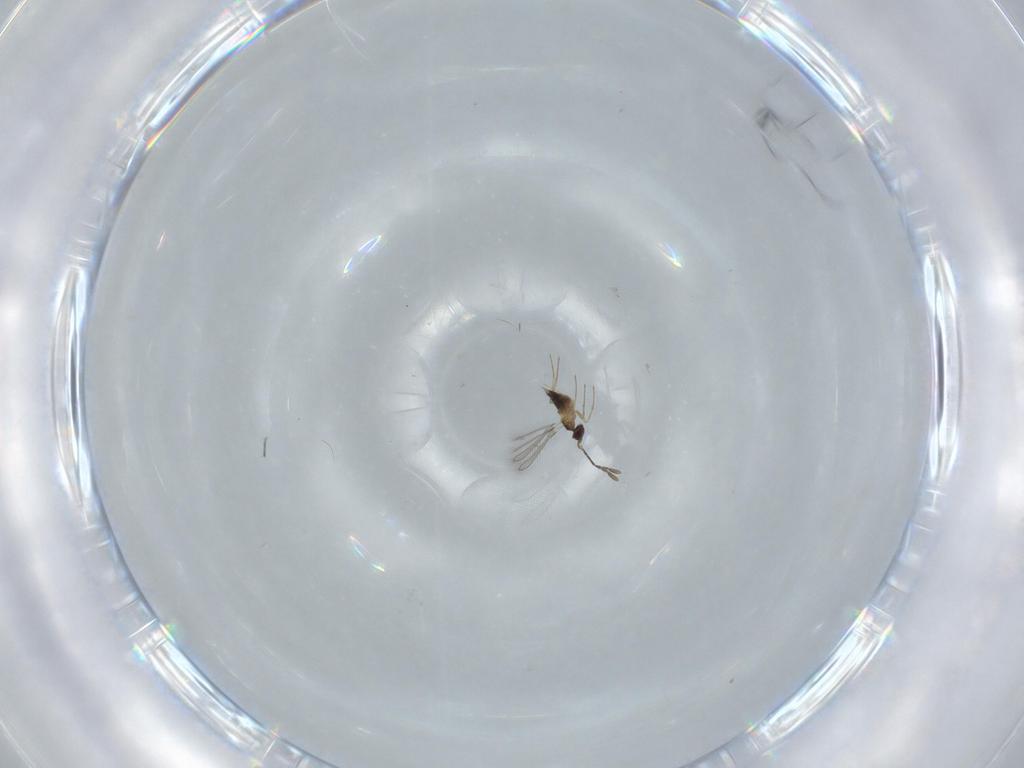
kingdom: Animalia
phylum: Arthropoda
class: Insecta
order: Hymenoptera
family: Mymaridae
